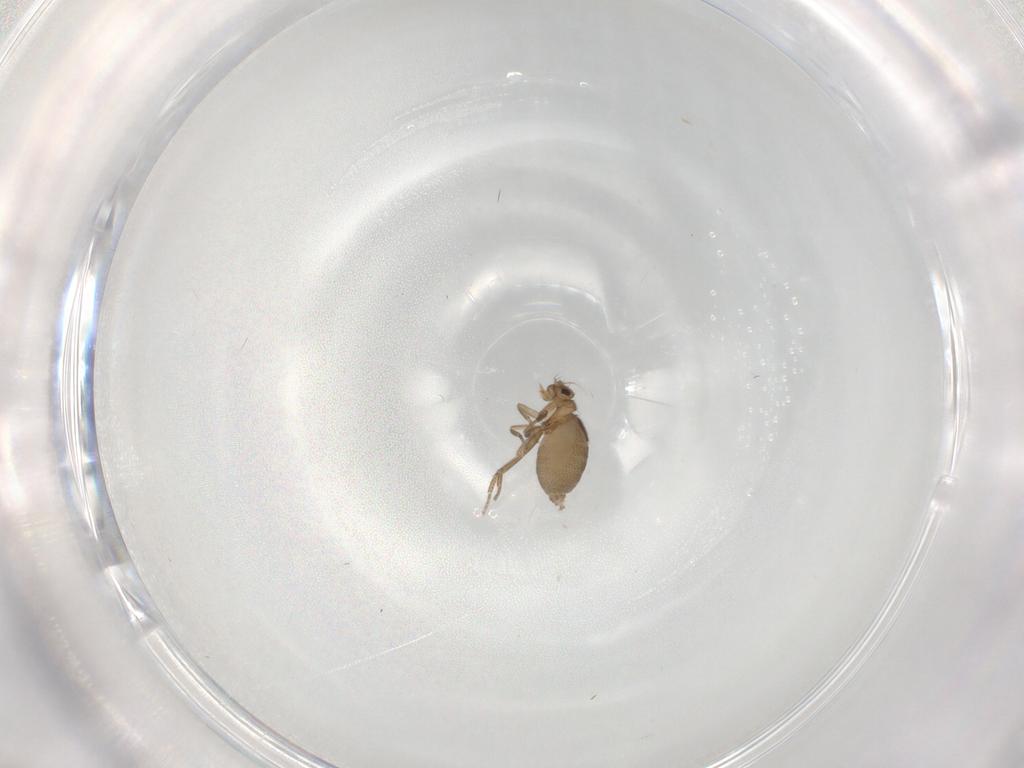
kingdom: Animalia
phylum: Arthropoda
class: Insecta
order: Diptera
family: Phoridae
